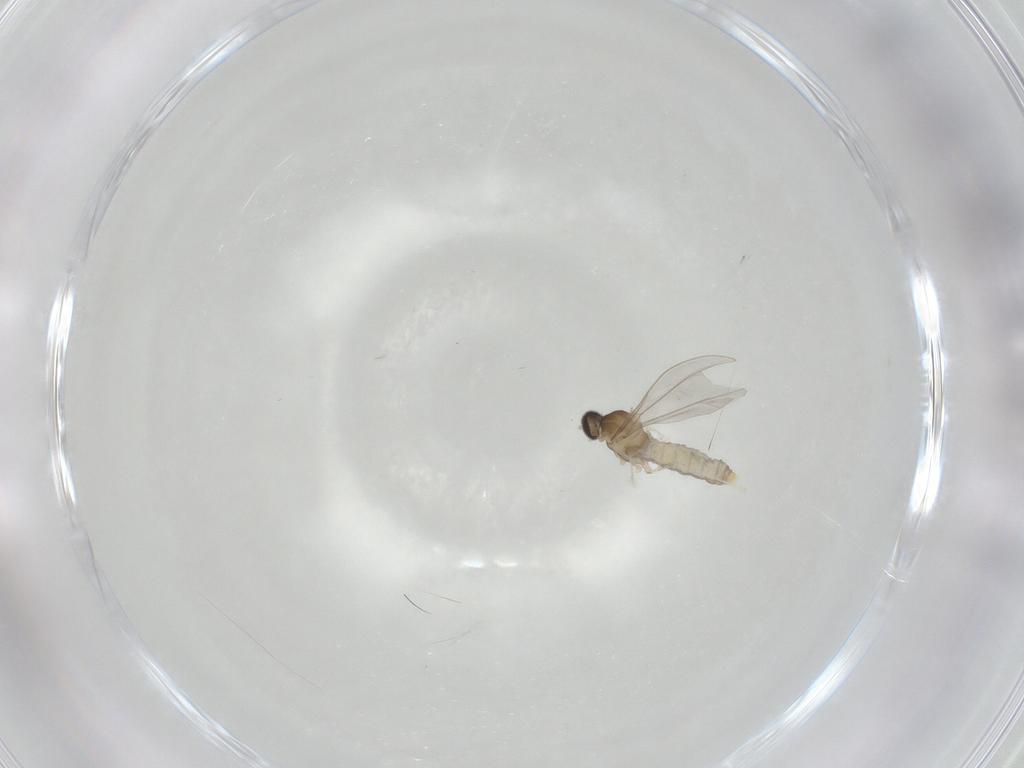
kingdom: Animalia
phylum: Arthropoda
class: Insecta
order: Diptera
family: Cecidomyiidae
